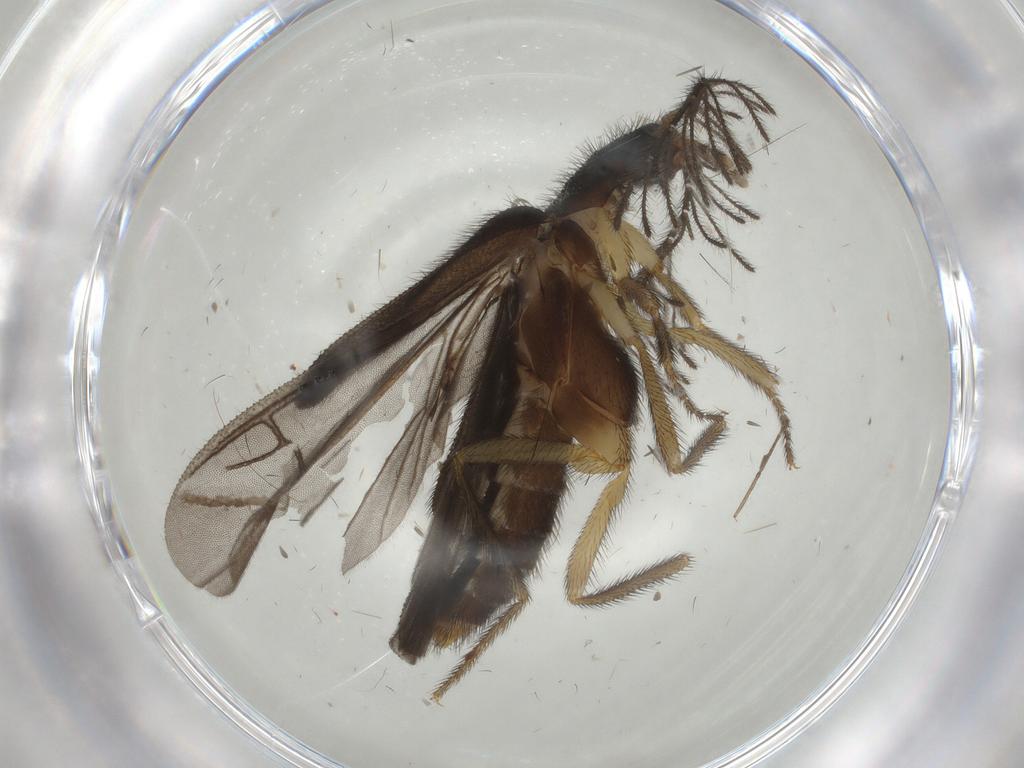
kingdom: Animalia
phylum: Arthropoda
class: Insecta
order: Coleoptera
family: Phengodidae
